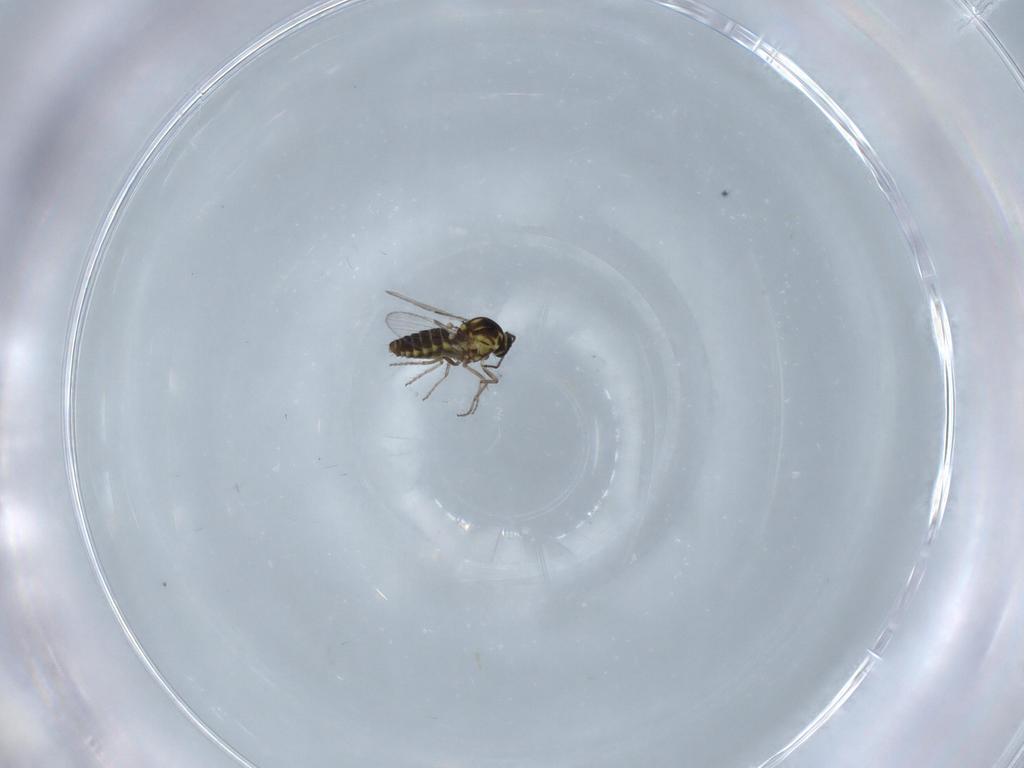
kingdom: Animalia
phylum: Arthropoda
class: Insecta
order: Diptera
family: Ceratopogonidae
